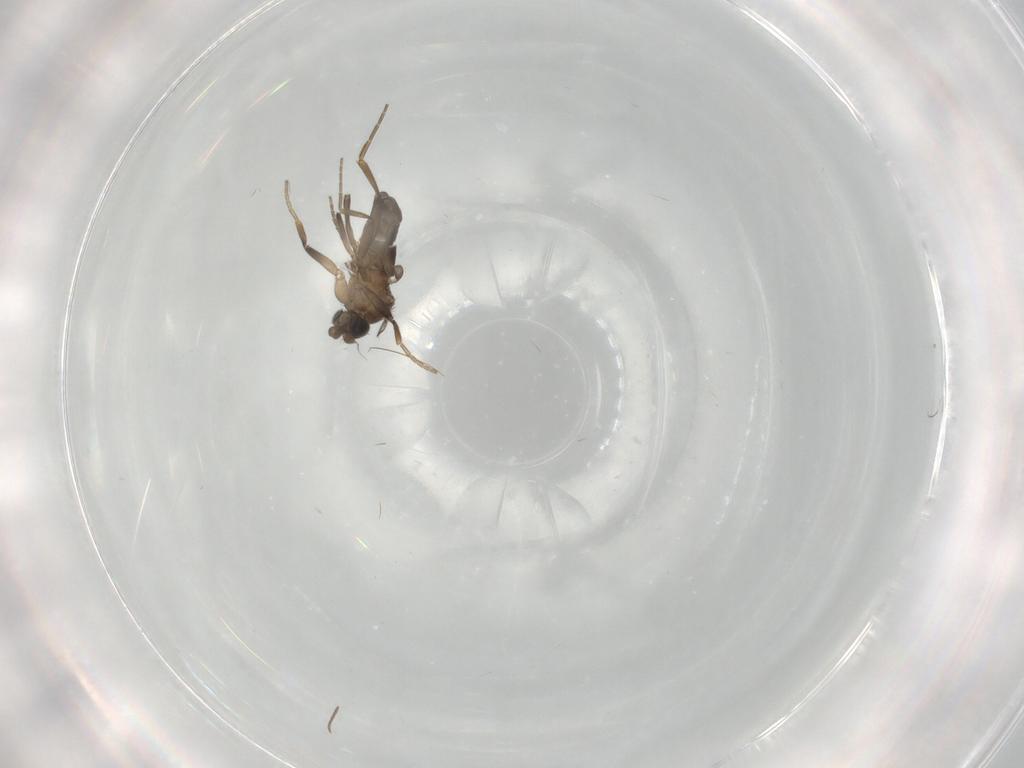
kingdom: Animalia
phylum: Arthropoda
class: Insecta
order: Diptera
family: Phoridae
